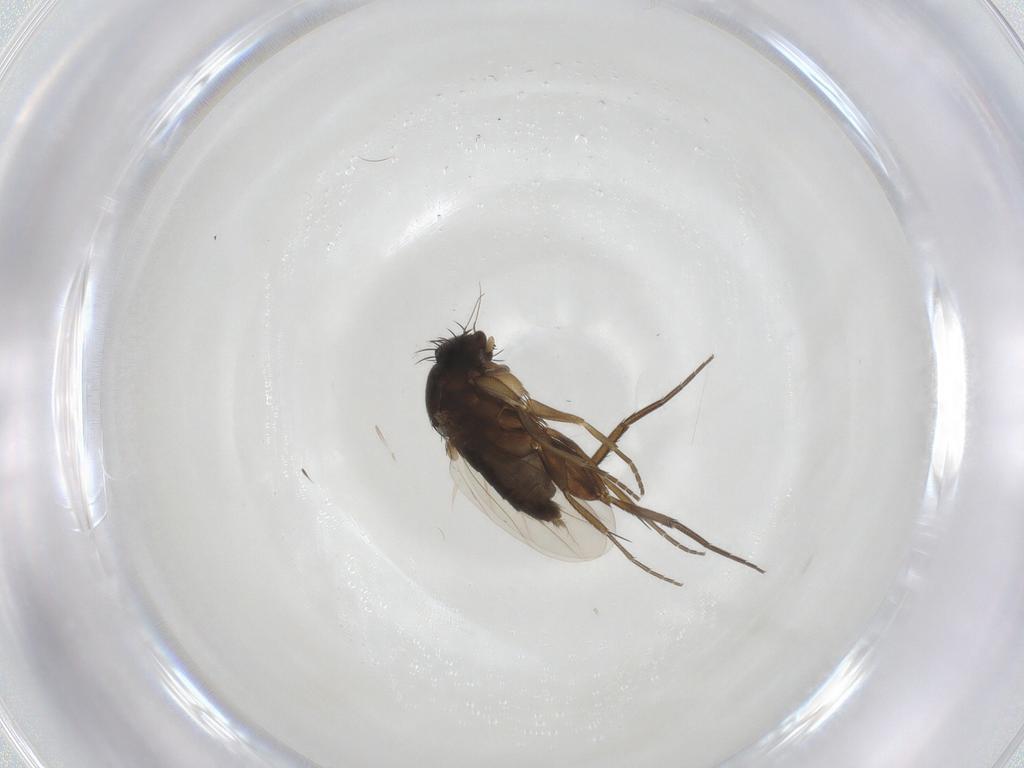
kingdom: Animalia
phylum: Arthropoda
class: Insecta
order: Diptera
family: Phoridae
